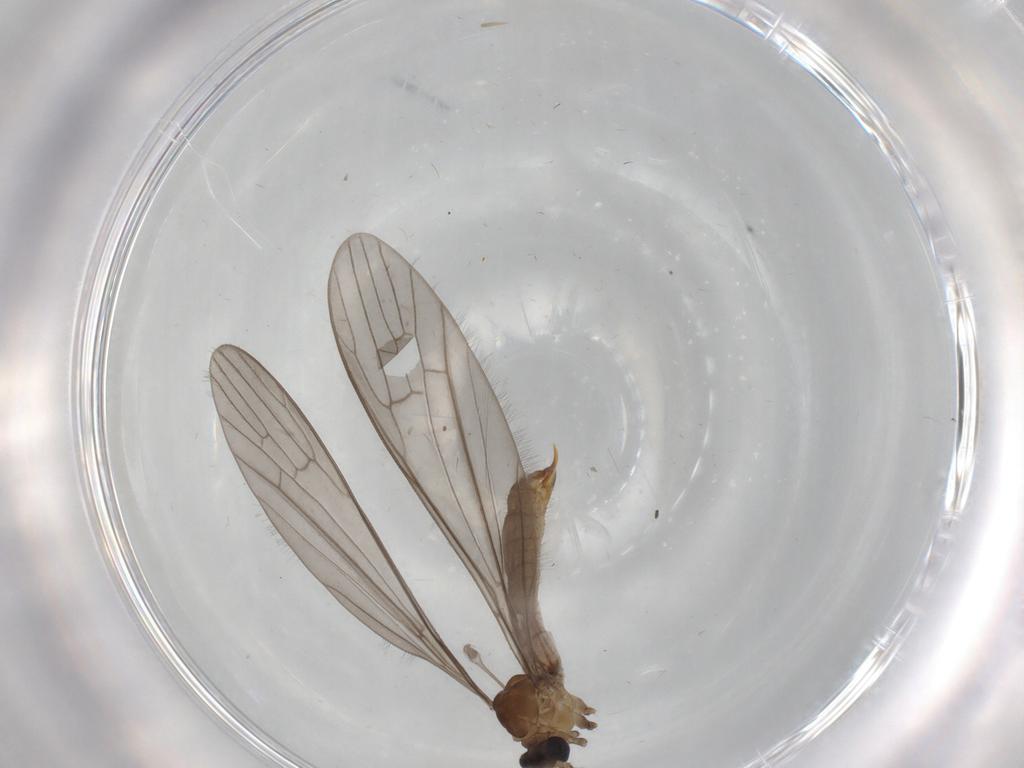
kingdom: Animalia
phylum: Arthropoda
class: Insecta
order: Diptera
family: Limoniidae
